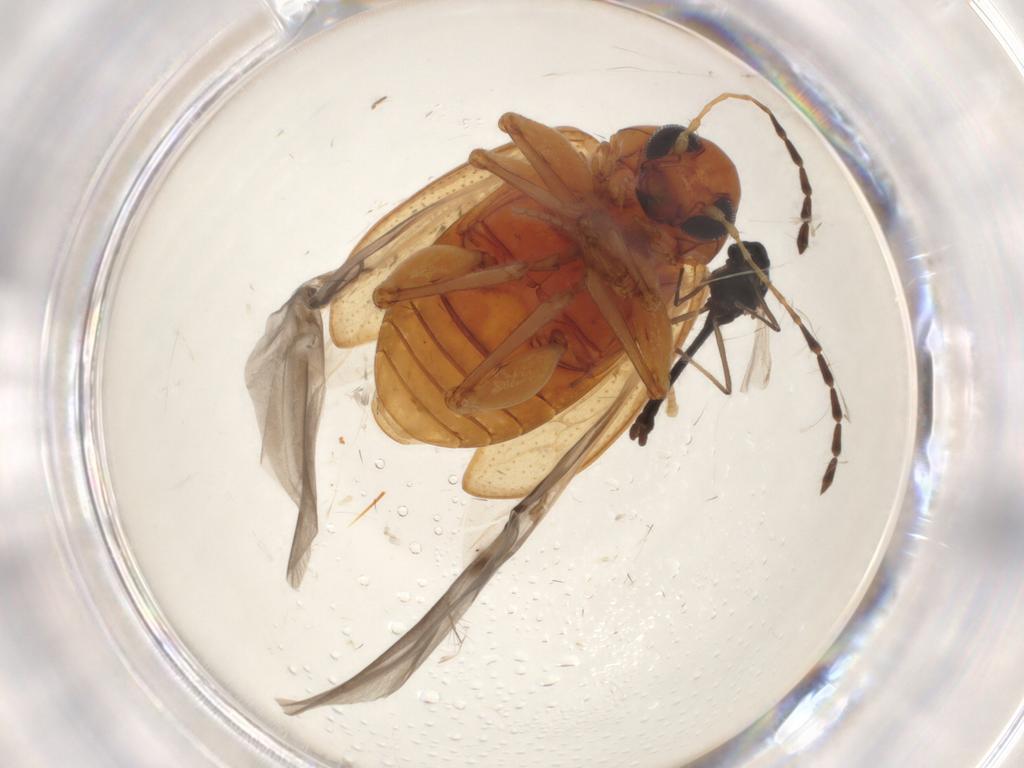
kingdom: Animalia
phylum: Arthropoda
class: Insecta
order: Coleoptera
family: Chrysomelidae
